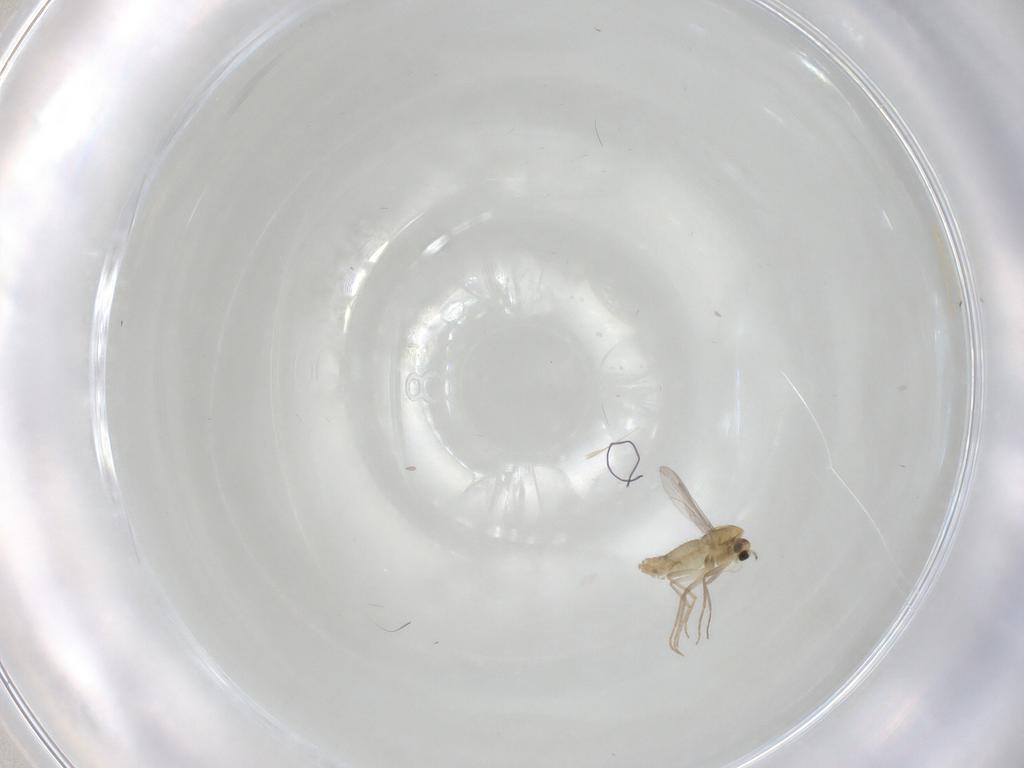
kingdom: Animalia
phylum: Arthropoda
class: Insecta
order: Diptera
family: Chironomidae
